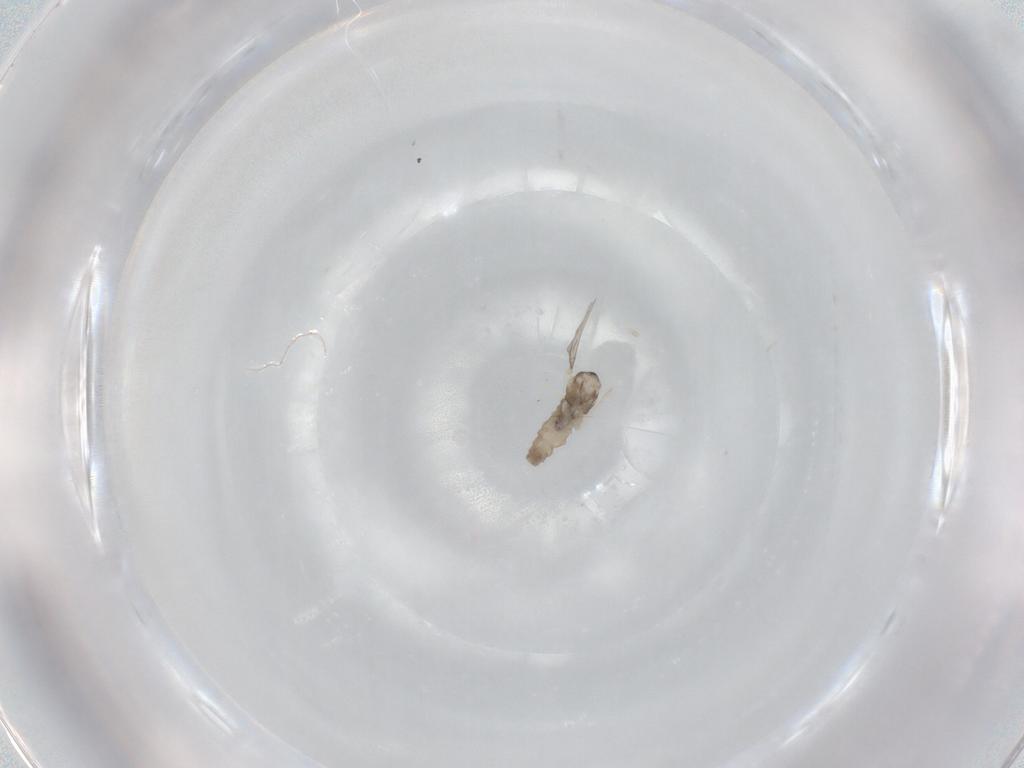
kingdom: Animalia
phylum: Arthropoda
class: Insecta
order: Diptera
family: Cecidomyiidae
